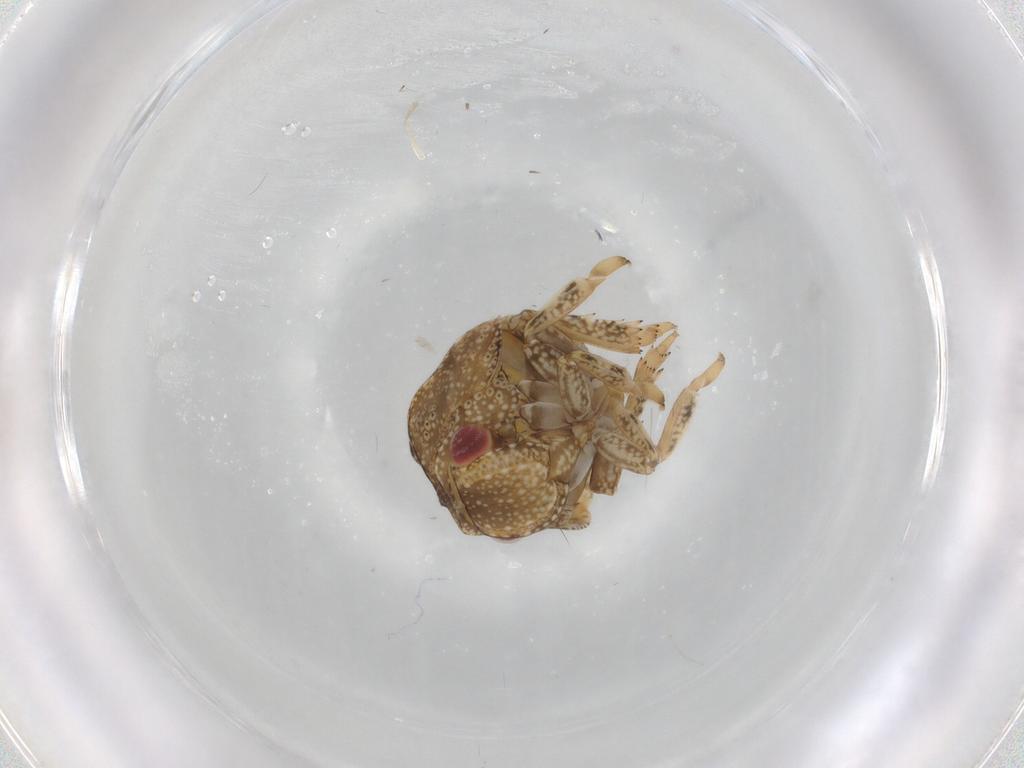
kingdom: Animalia
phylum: Arthropoda
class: Insecta
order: Hemiptera
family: Acanaloniidae
